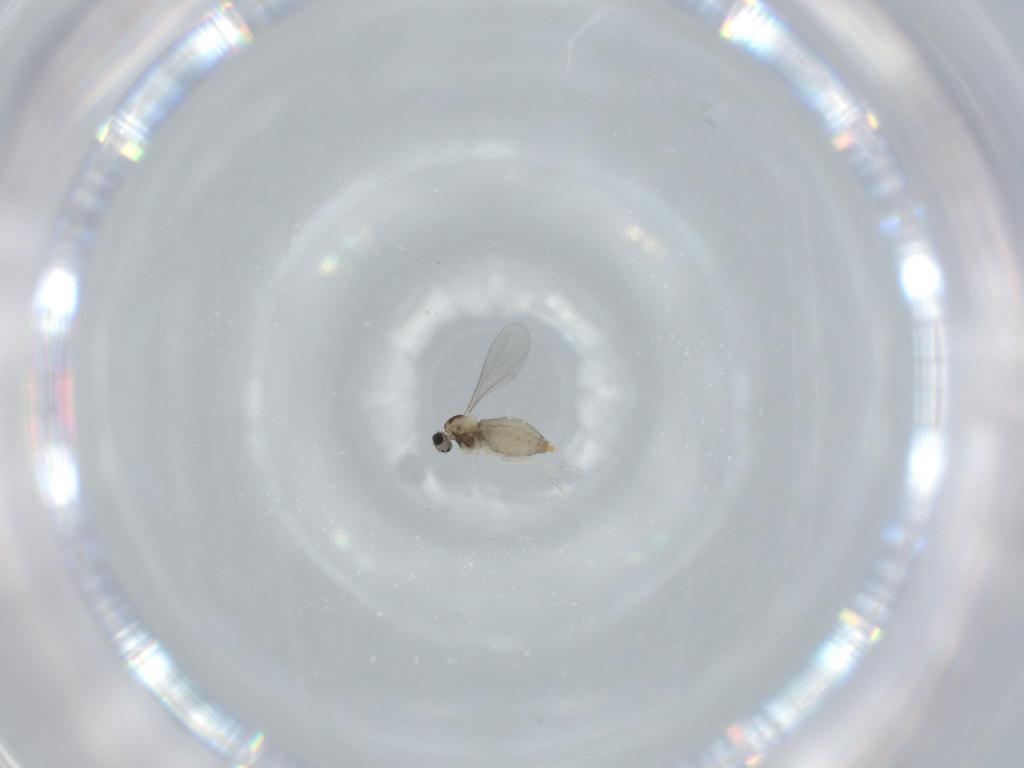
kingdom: Animalia
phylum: Arthropoda
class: Insecta
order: Diptera
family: Cecidomyiidae
